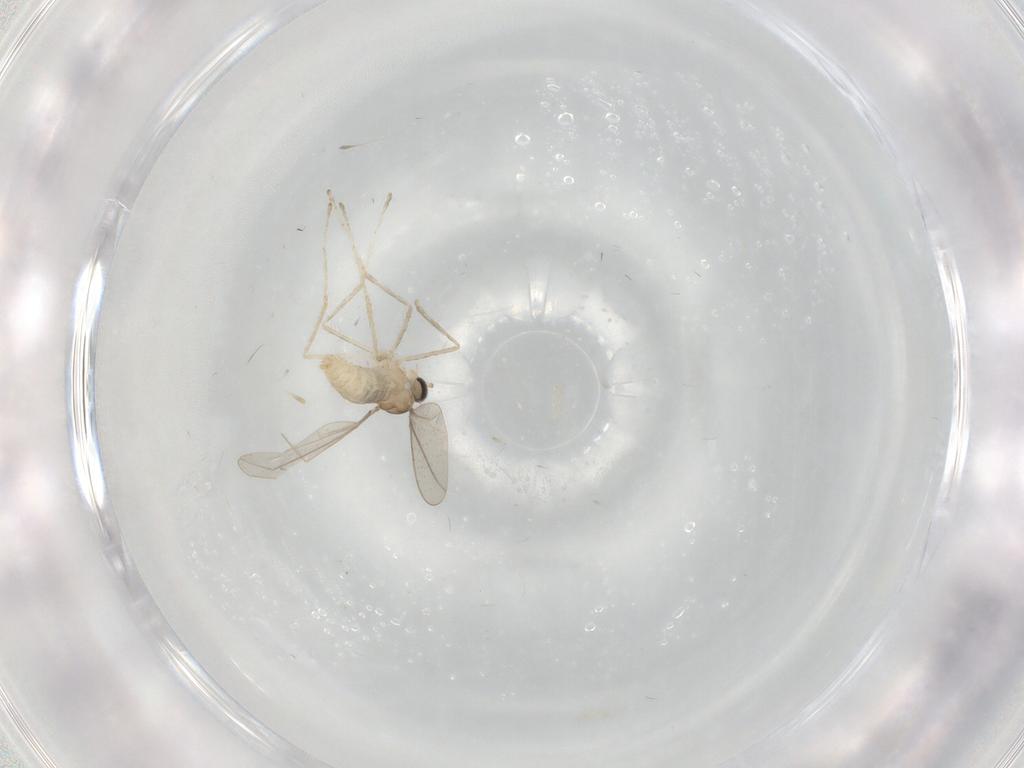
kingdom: Animalia
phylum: Arthropoda
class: Insecta
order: Diptera
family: Cecidomyiidae
